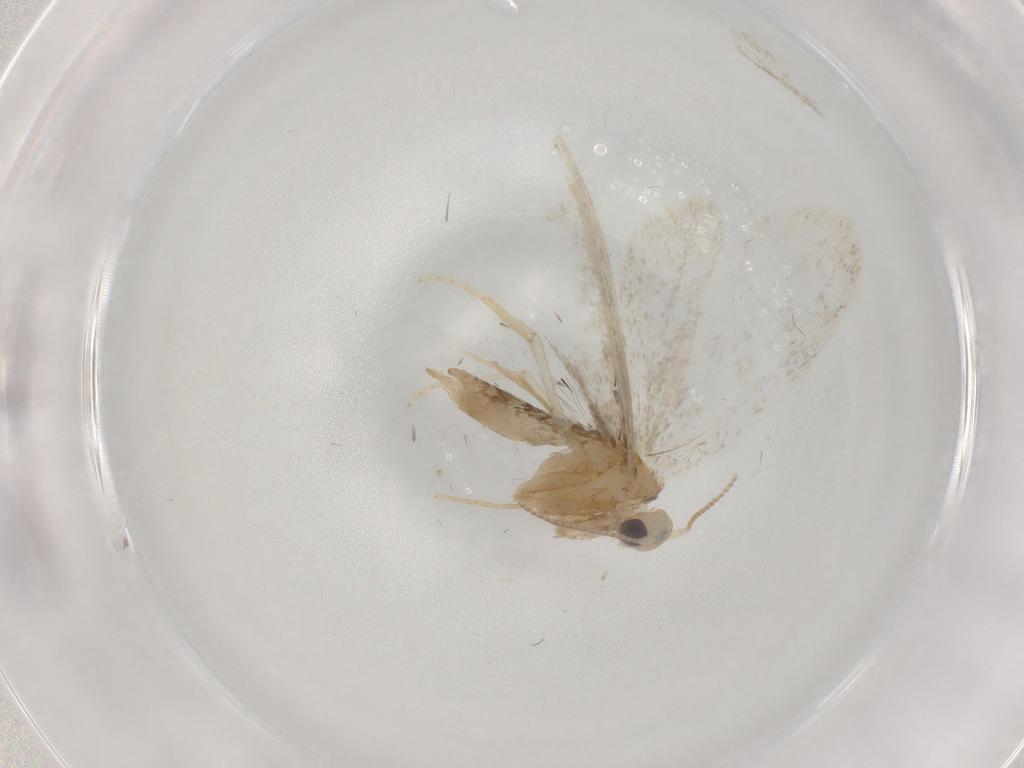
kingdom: Animalia
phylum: Arthropoda
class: Insecta
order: Lepidoptera
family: Psychidae
